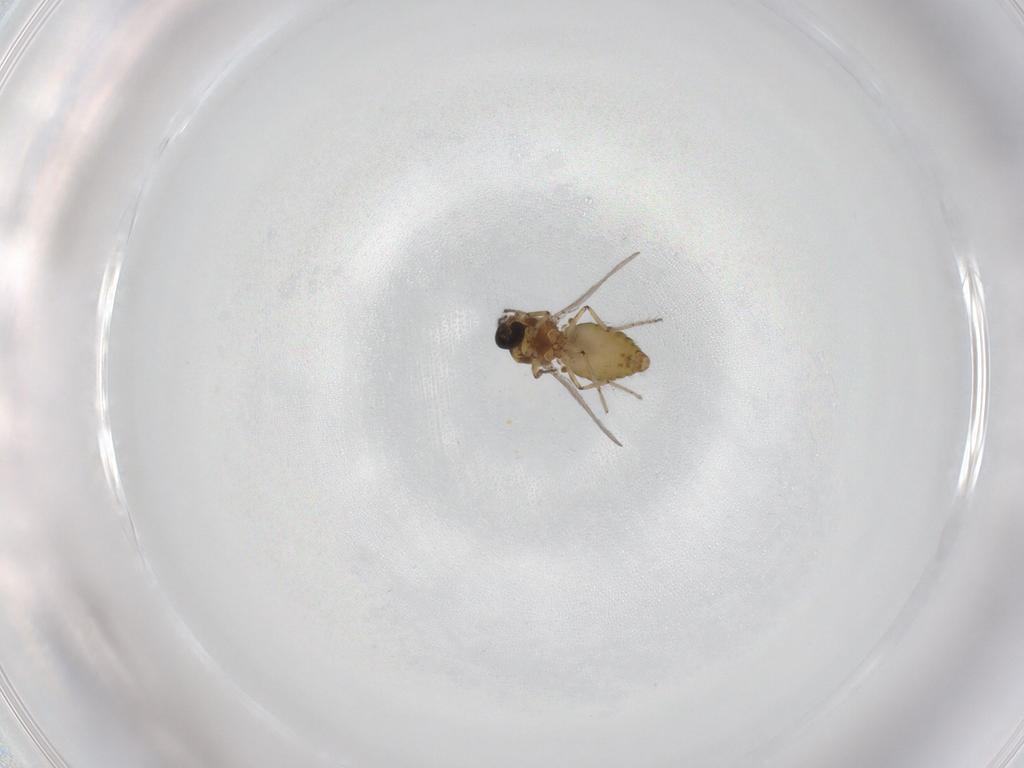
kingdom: Animalia
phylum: Arthropoda
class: Insecta
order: Diptera
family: Ceratopogonidae
